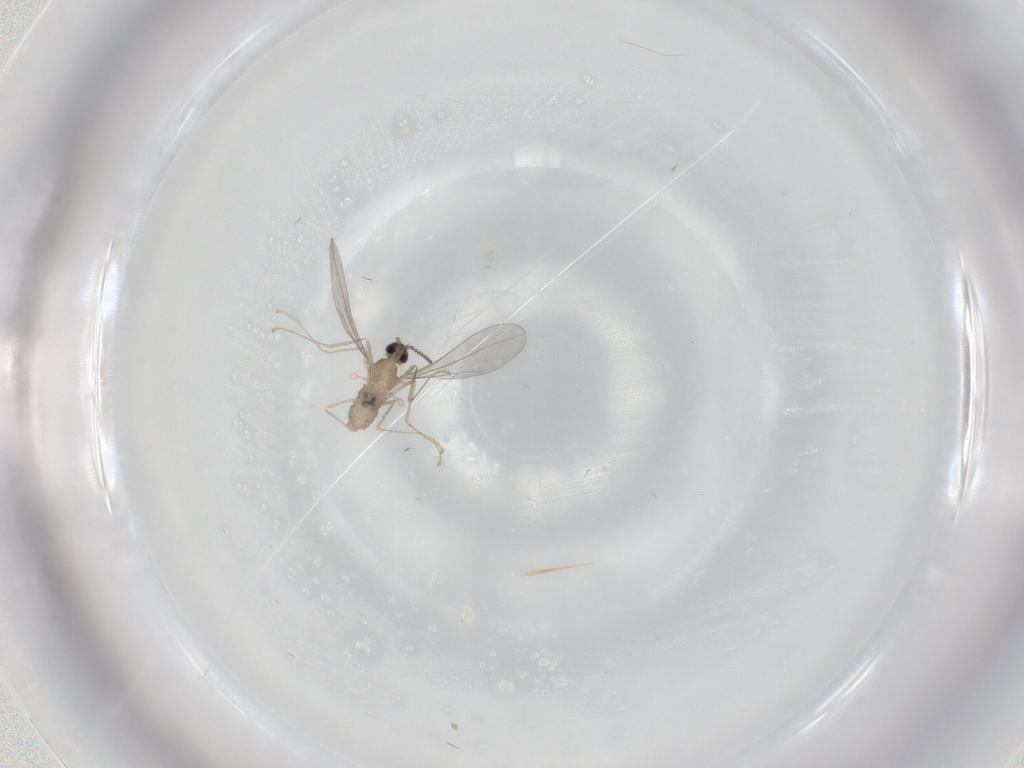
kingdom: Animalia
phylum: Arthropoda
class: Insecta
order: Diptera
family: Cecidomyiidae
